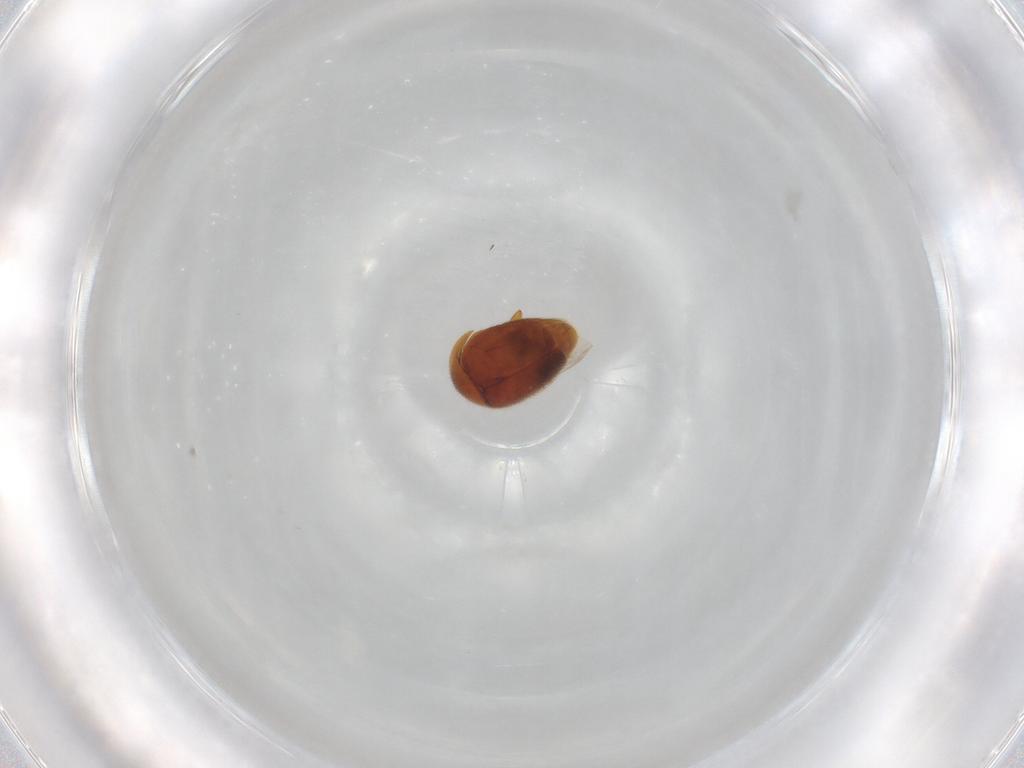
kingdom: Animalia
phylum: Arthropoda
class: Insecta
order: Coleoptera
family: Corylophidae
